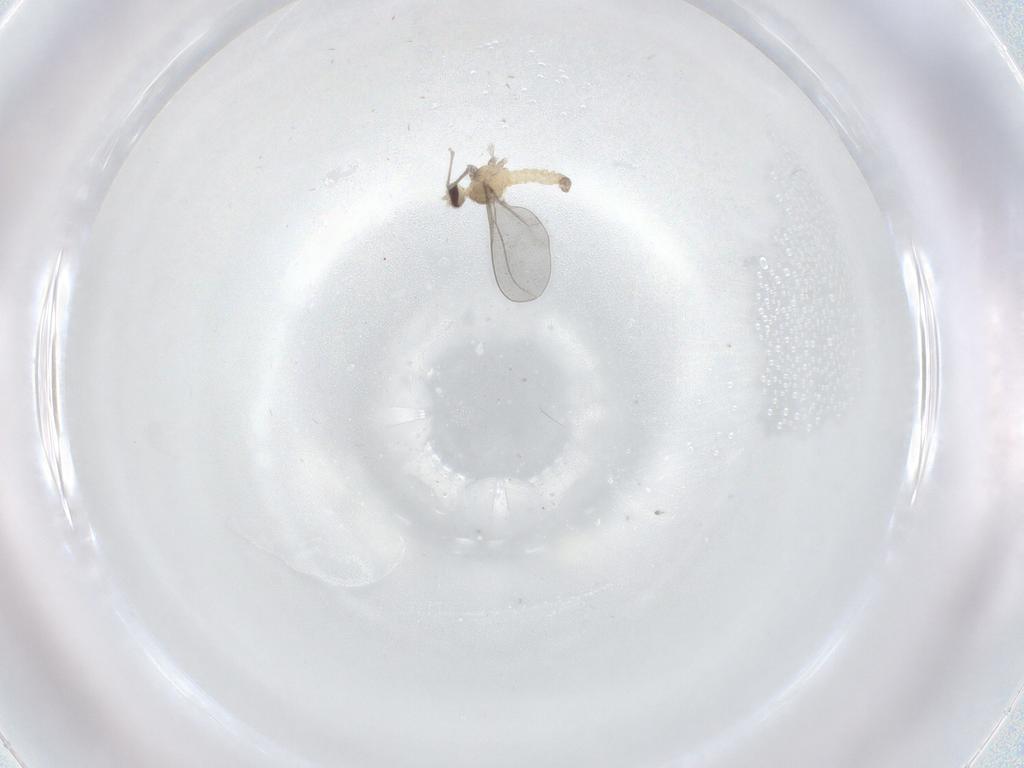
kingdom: Animalia
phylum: Arthropoda
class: Insecta
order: Diptera
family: Cecidomyiidae
